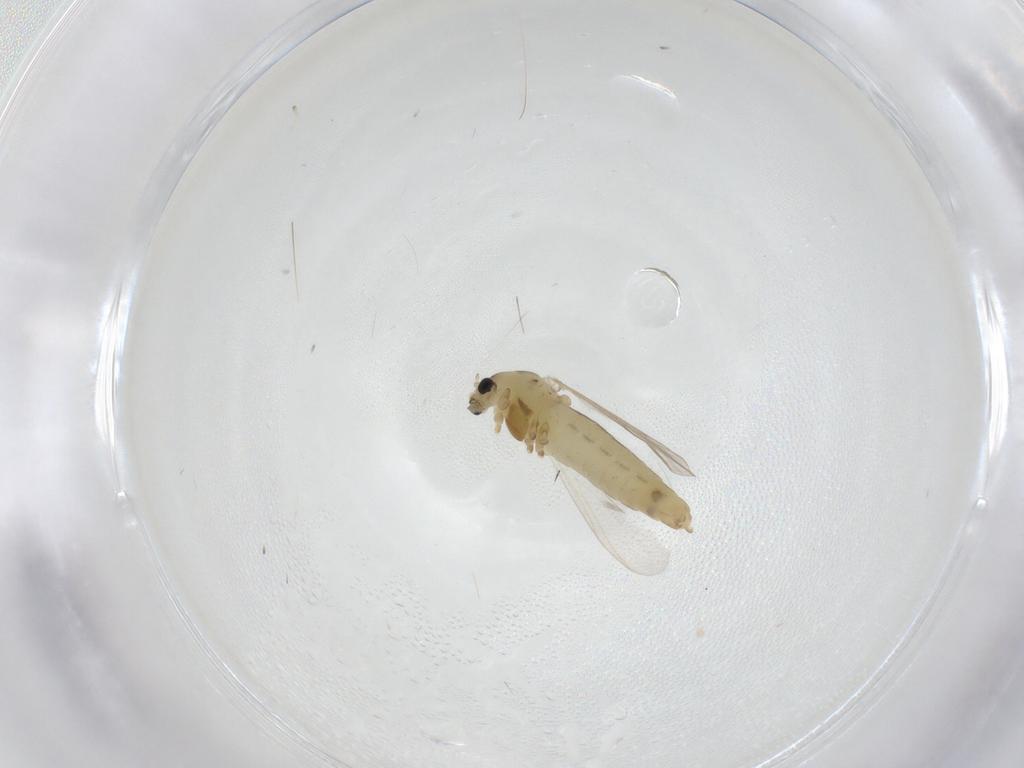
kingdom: Animalia
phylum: Arthropoda
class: Insecta
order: Diptera
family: Chironomidae
